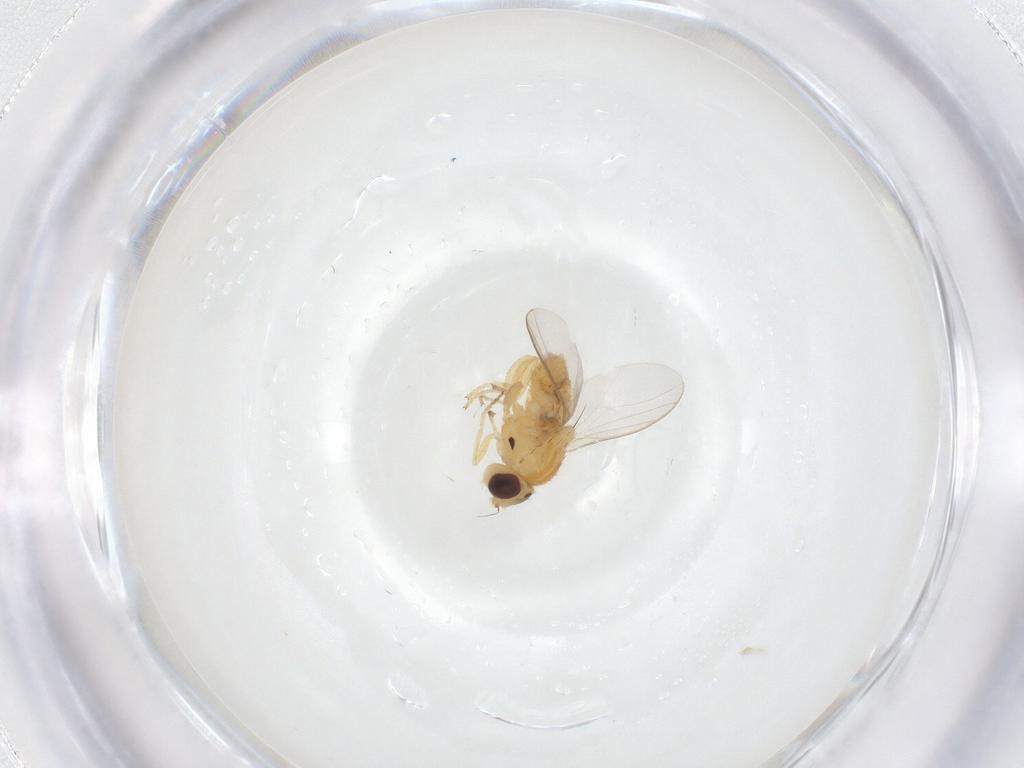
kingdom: Animalia
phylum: Arthropoda
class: Insecta
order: Diptera
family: Chloropidae
